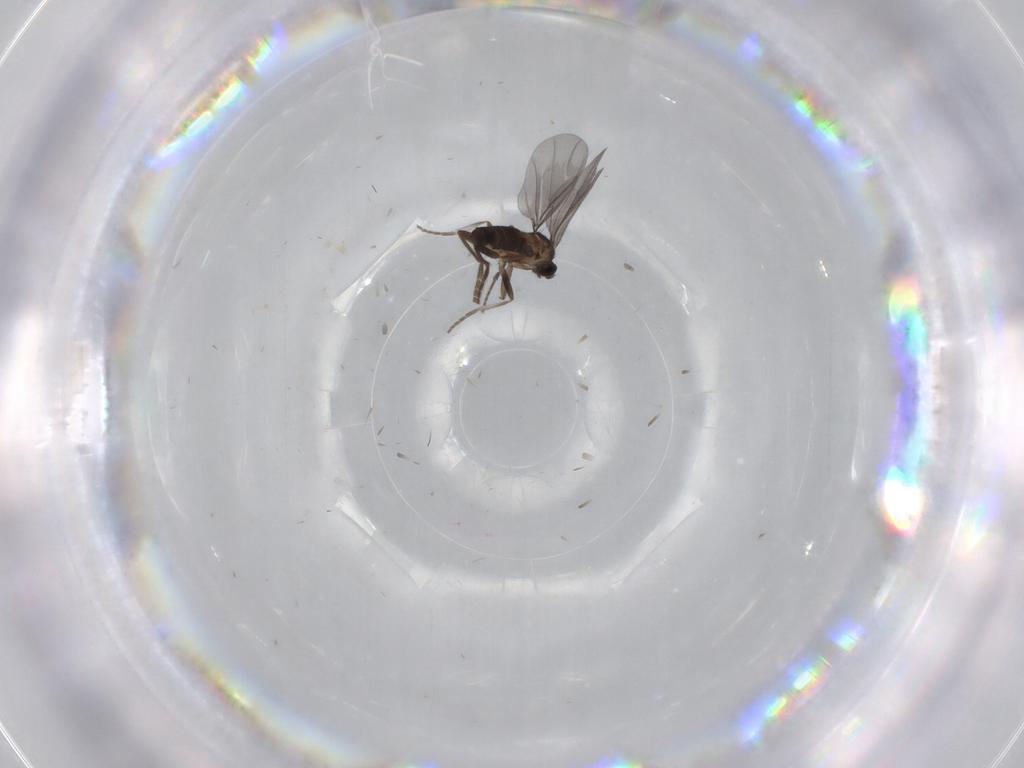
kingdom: Animalia
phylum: Arthropoda
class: Insecta
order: Diptera
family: Phoridae
